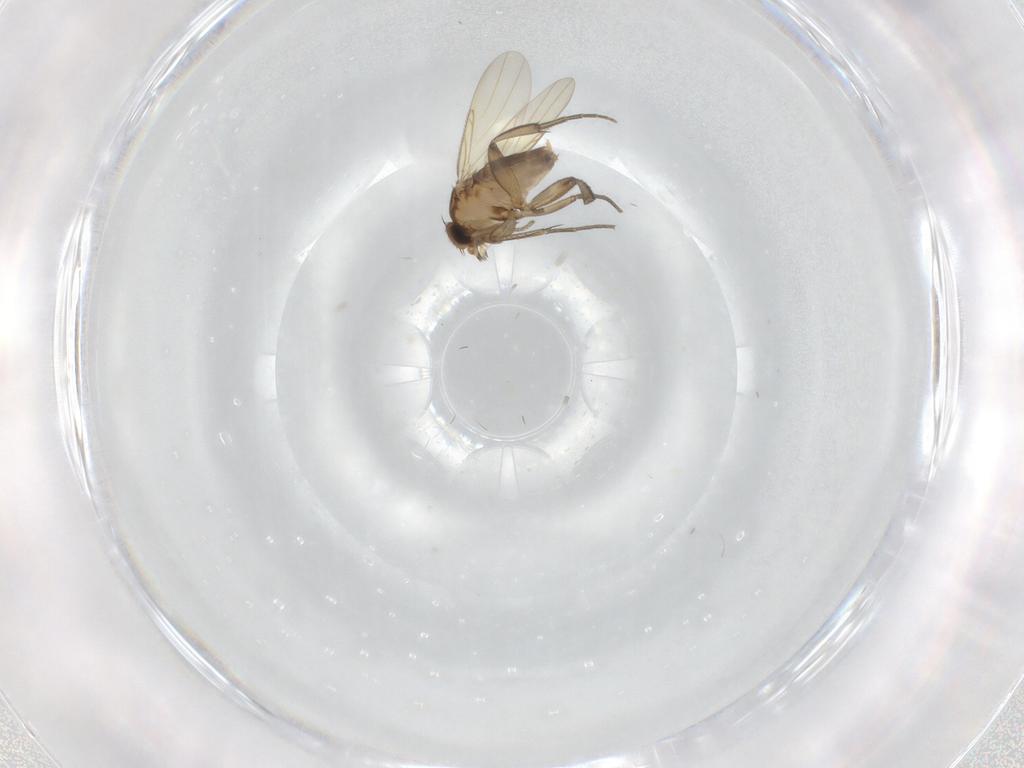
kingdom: Animalia
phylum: Arthropoda
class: Insecta
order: Diptera
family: Phoridae
